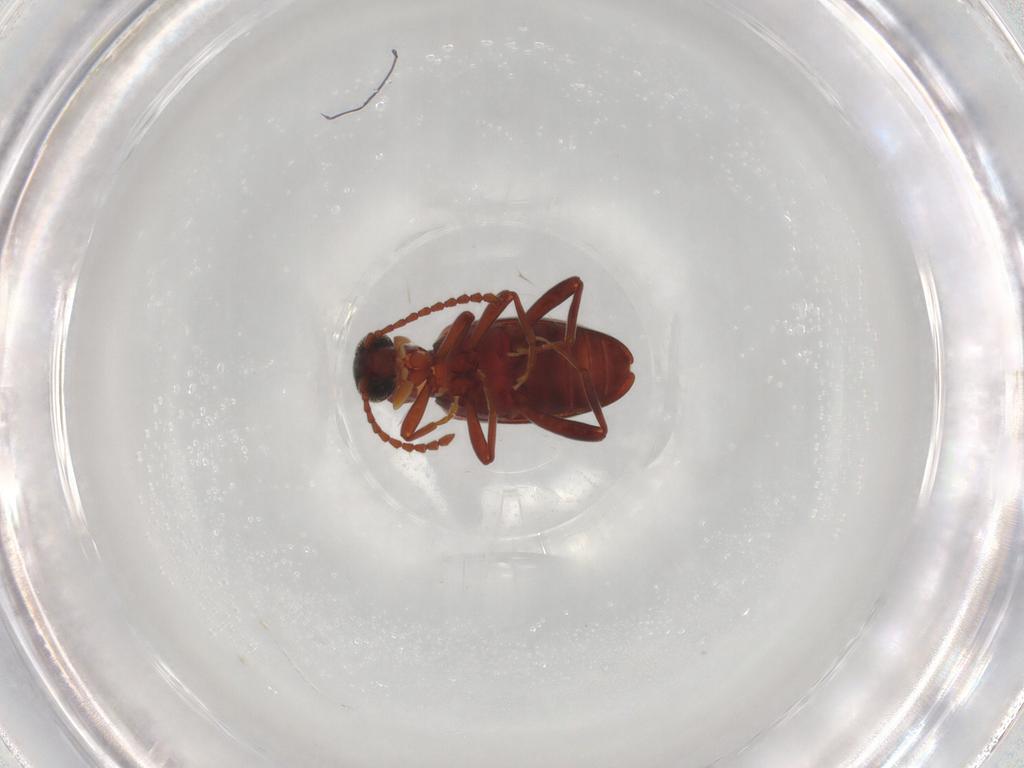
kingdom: Animalia
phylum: Arthropoda
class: Insecta
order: Coleoptera
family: Aderidae
